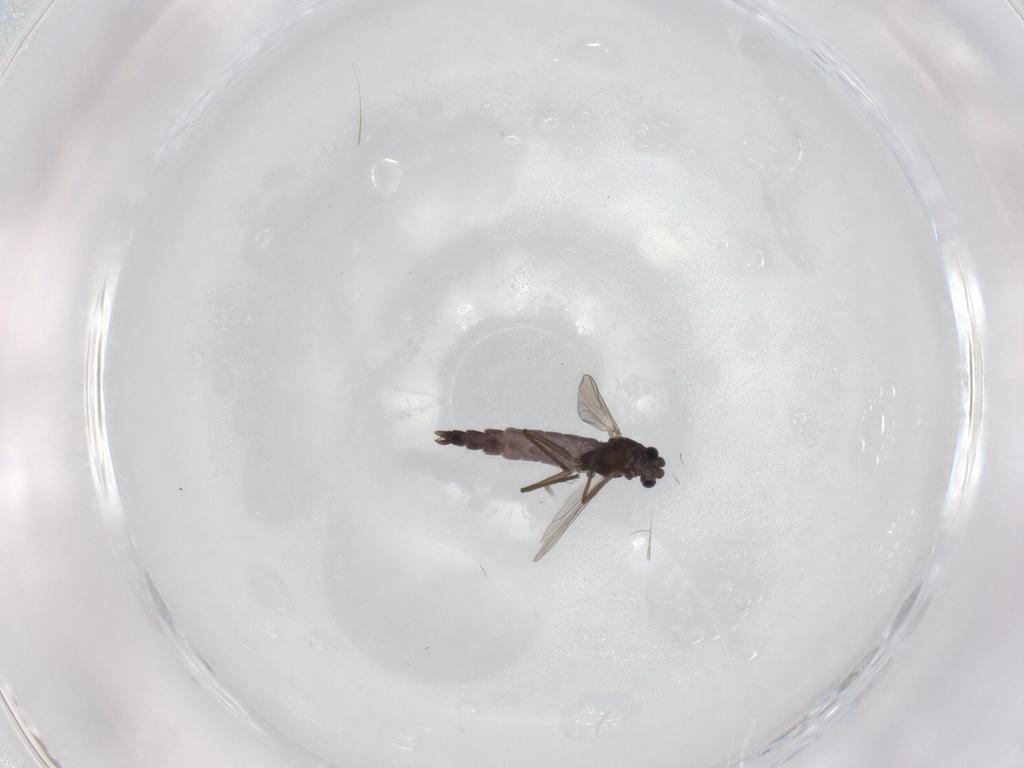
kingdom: Animalia
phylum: Arthropoda
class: Insecta
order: Diptera
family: Chironomidae
